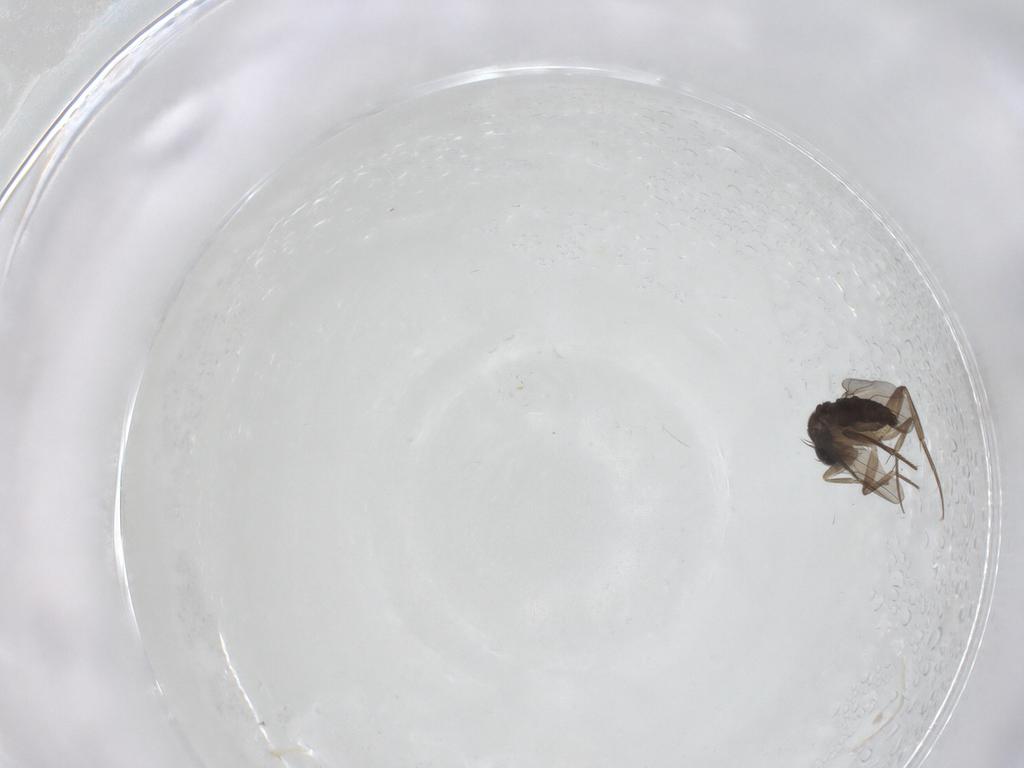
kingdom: Animalia
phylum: Arthropoda
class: Insecta
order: Diptera
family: Phoridae
